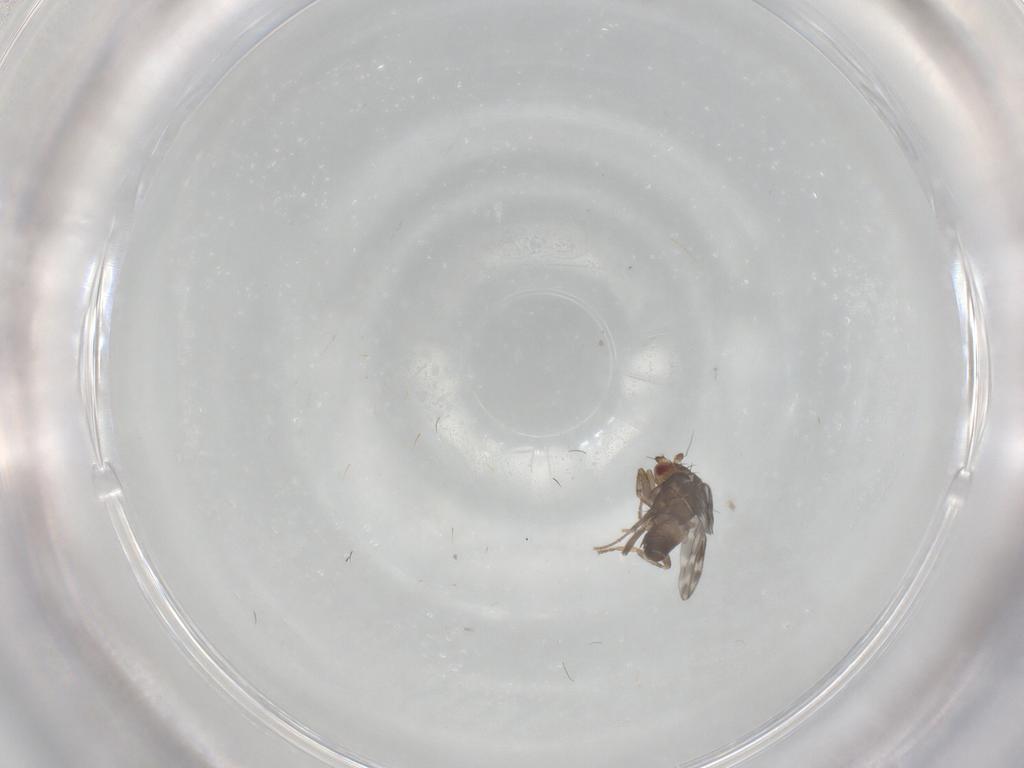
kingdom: Animalia
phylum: Arthropoda
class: Insecta
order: Diptera
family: Sphaeroceridae
